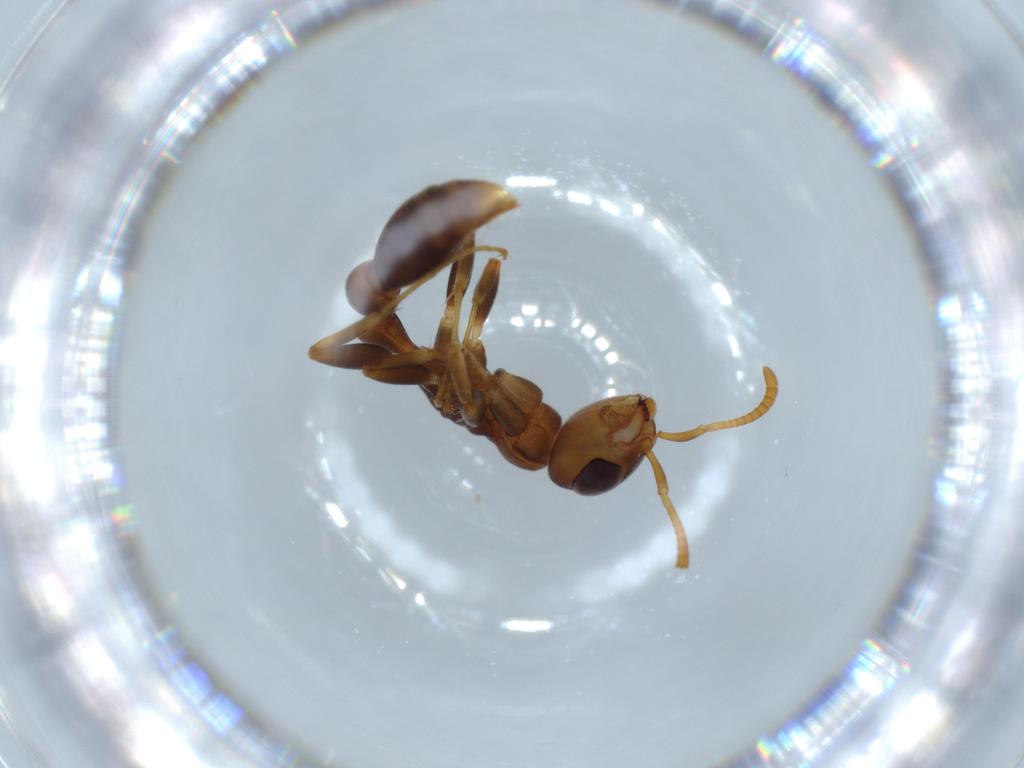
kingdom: Animalia
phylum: Arthropoda
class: Insecta
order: Hymenoptera
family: Formicidae
